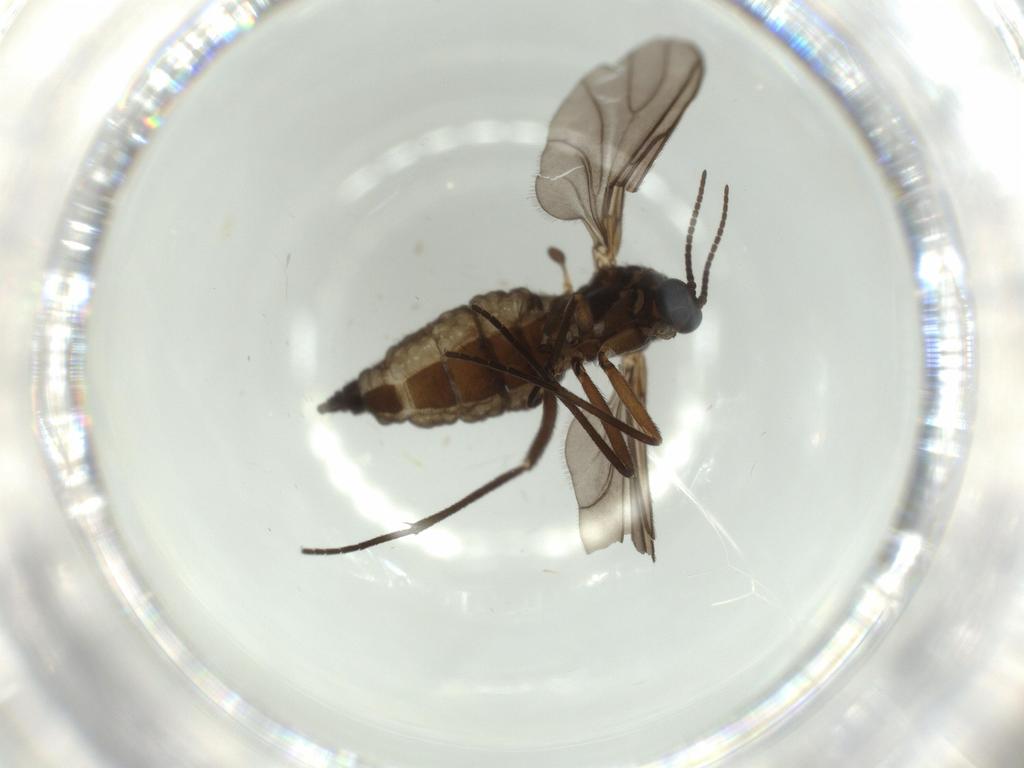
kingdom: Animalia
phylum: Arthropoda
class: Insecta
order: Diptera
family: Sciaridae
